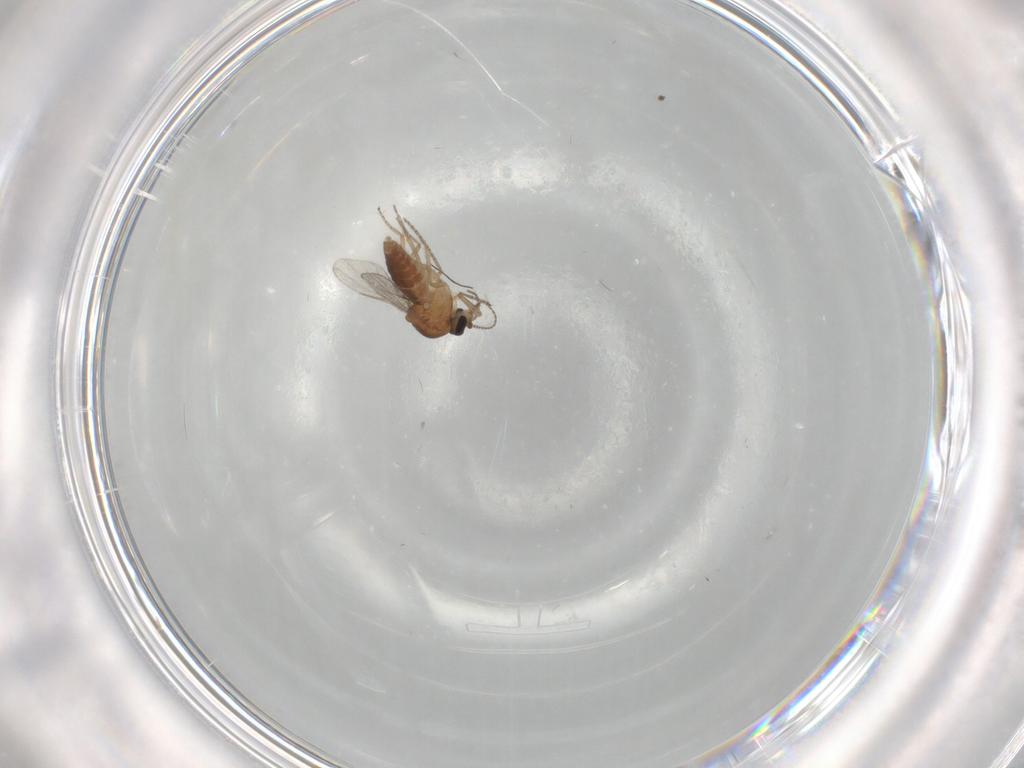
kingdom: Animalia
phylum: Arthropoda
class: Insecta
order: Diptera
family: Ceratopogonidae
